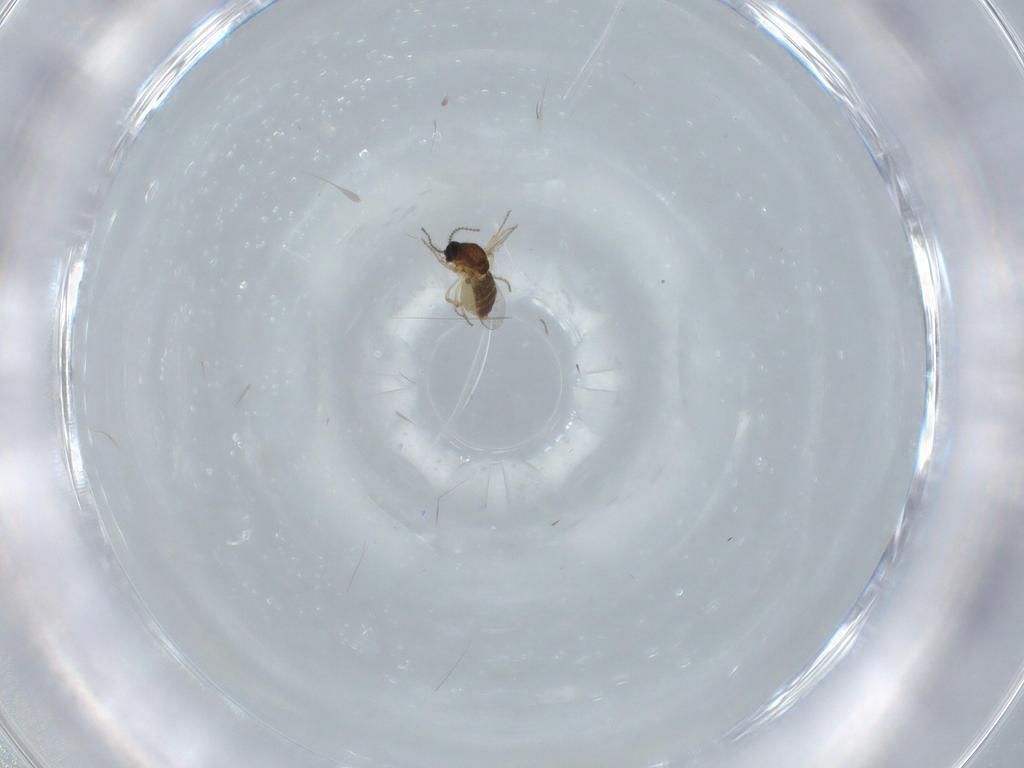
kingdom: Animalia
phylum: Arthropoda
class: Insecta
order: Diptera
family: Ceratopogonidae
